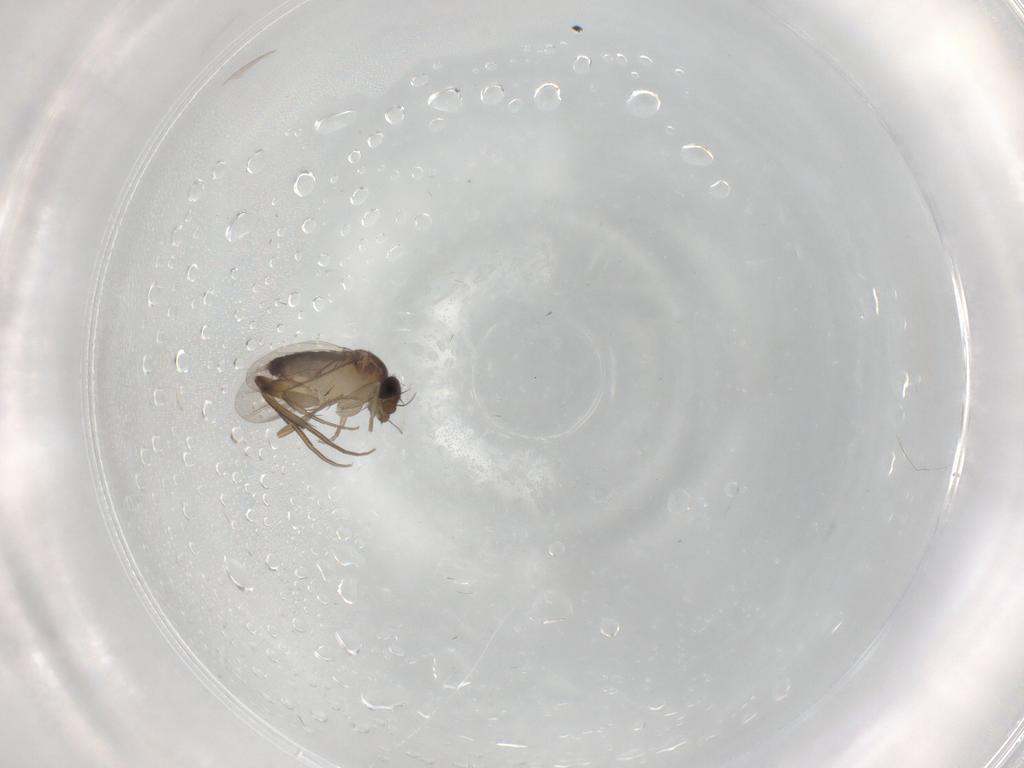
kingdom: Animalia
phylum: Arthropoda
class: Insecta
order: Diptera
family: Phoridae
